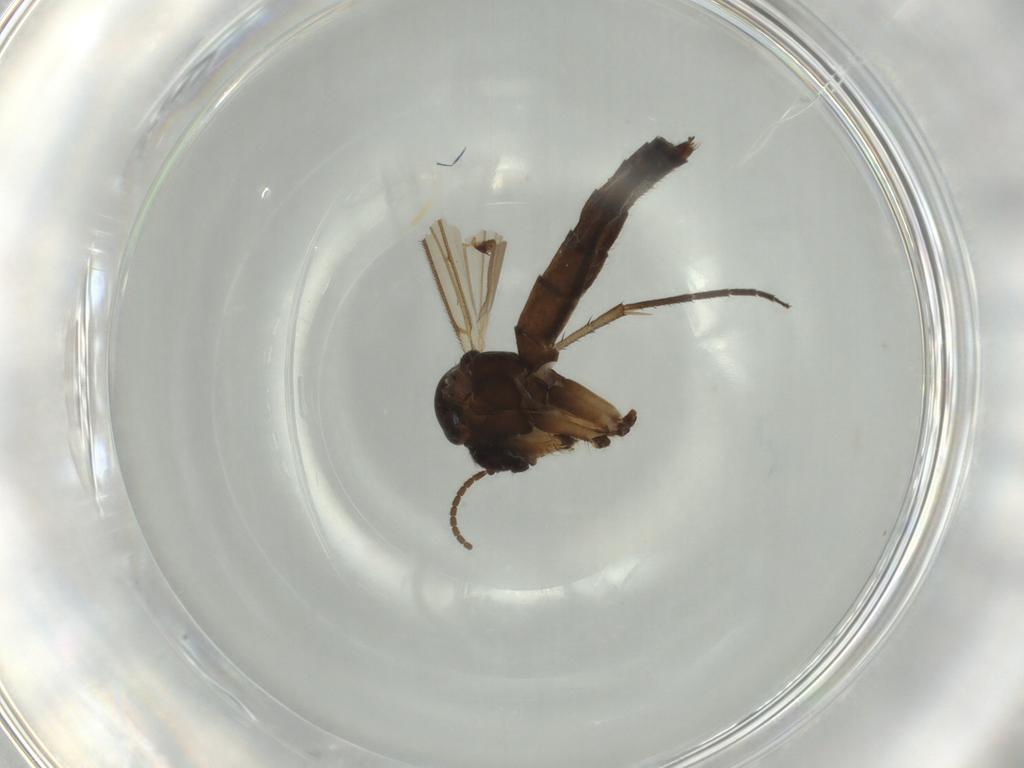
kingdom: Animalia
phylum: Arthropoda
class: Insecta
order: Diptera
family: Mycetophilidae
